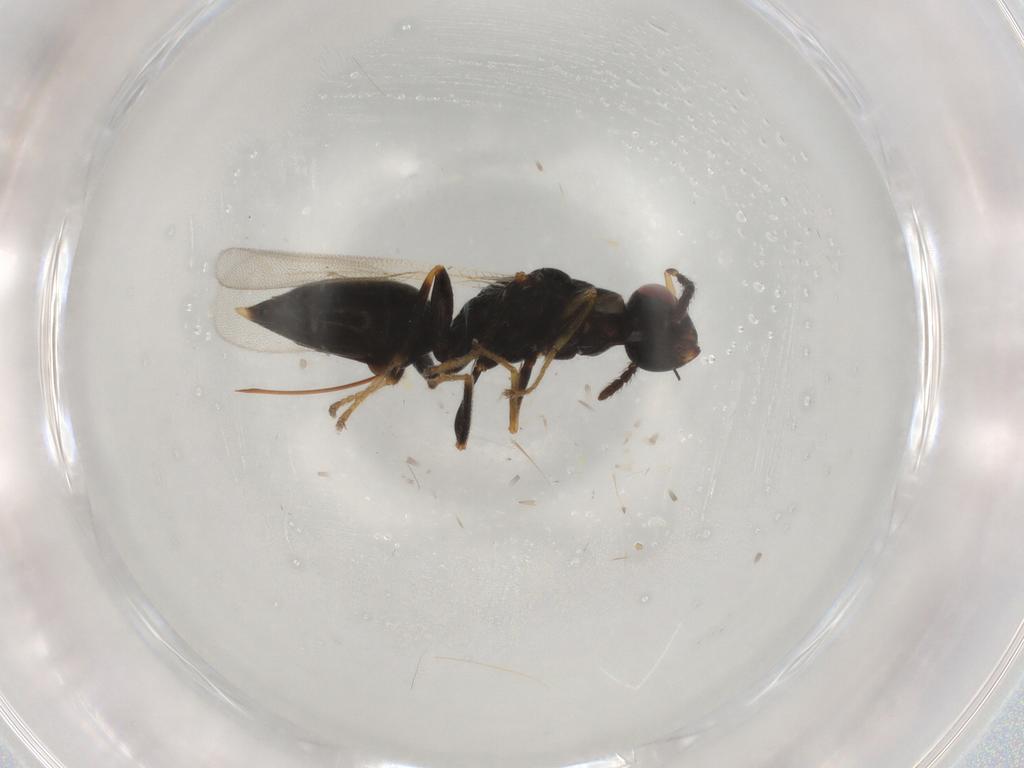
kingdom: Animalia
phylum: Arthropoda
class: Insecta
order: Hymenoptera
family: Eurytomidae
